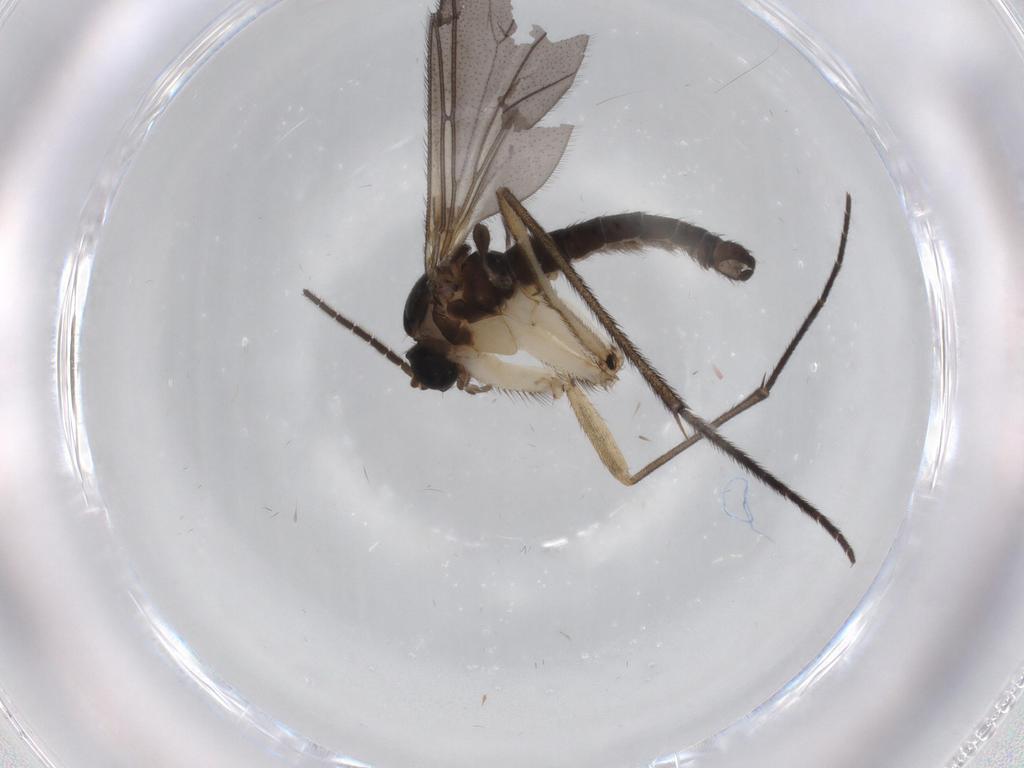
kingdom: Animalia
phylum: Arthropoda
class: Insecta
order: Diptera
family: Sciaridae
